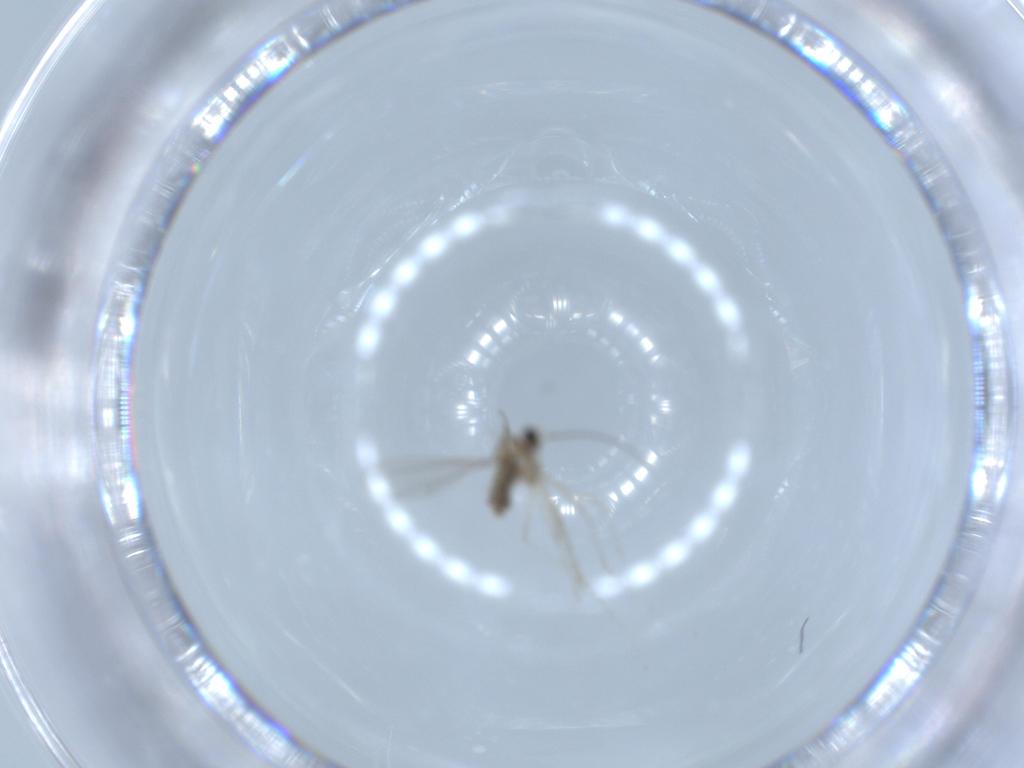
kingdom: Animalia
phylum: Arthropoda
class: Insecta
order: Diptera
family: Cecidomyiidae
